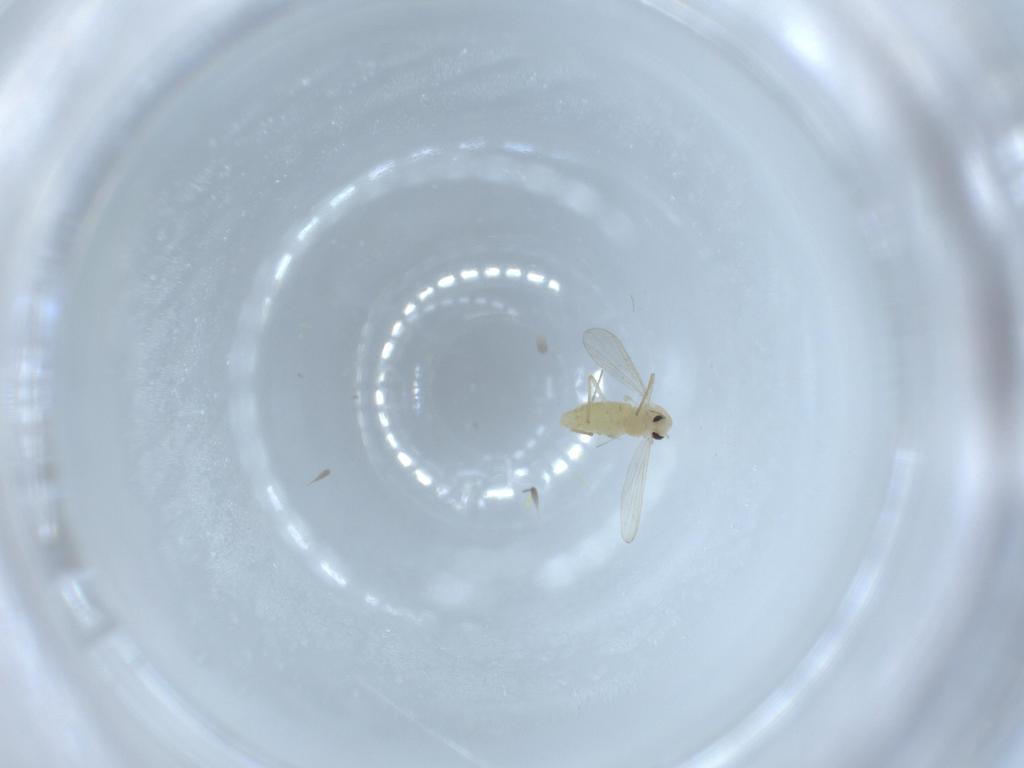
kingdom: Animalia
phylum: Arthropoda
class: Insecta
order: Diptera
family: Chironomidae
